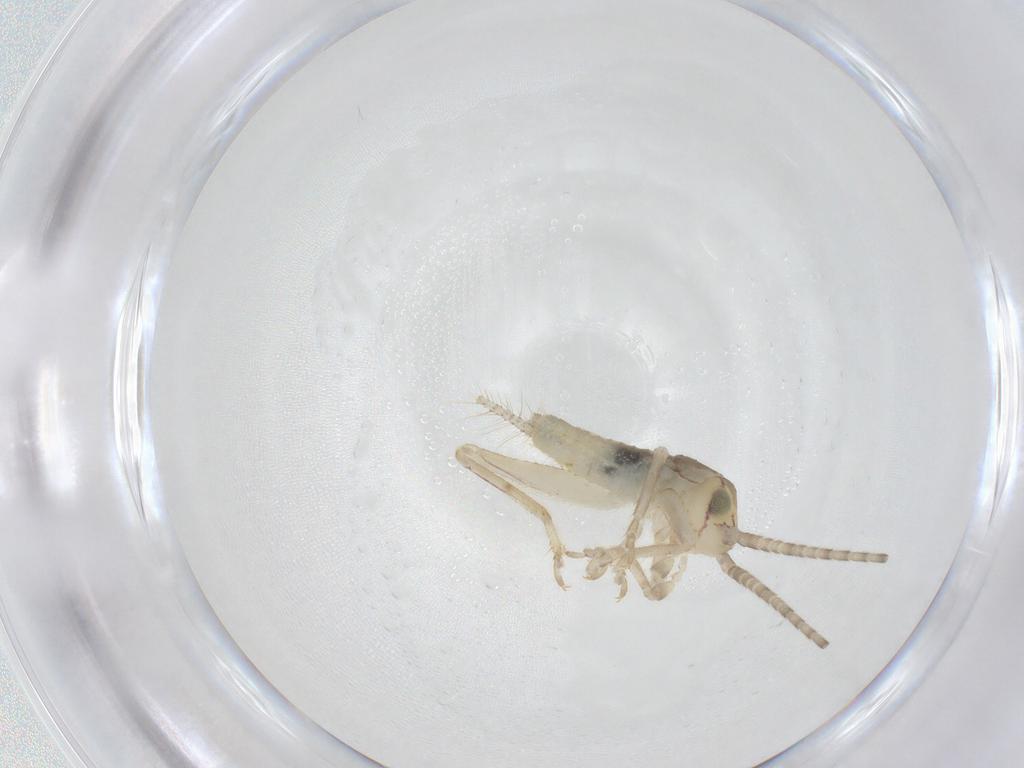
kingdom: Animalia
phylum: Arthropoda
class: Insecta
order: Orthoptera
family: Gryllidae
